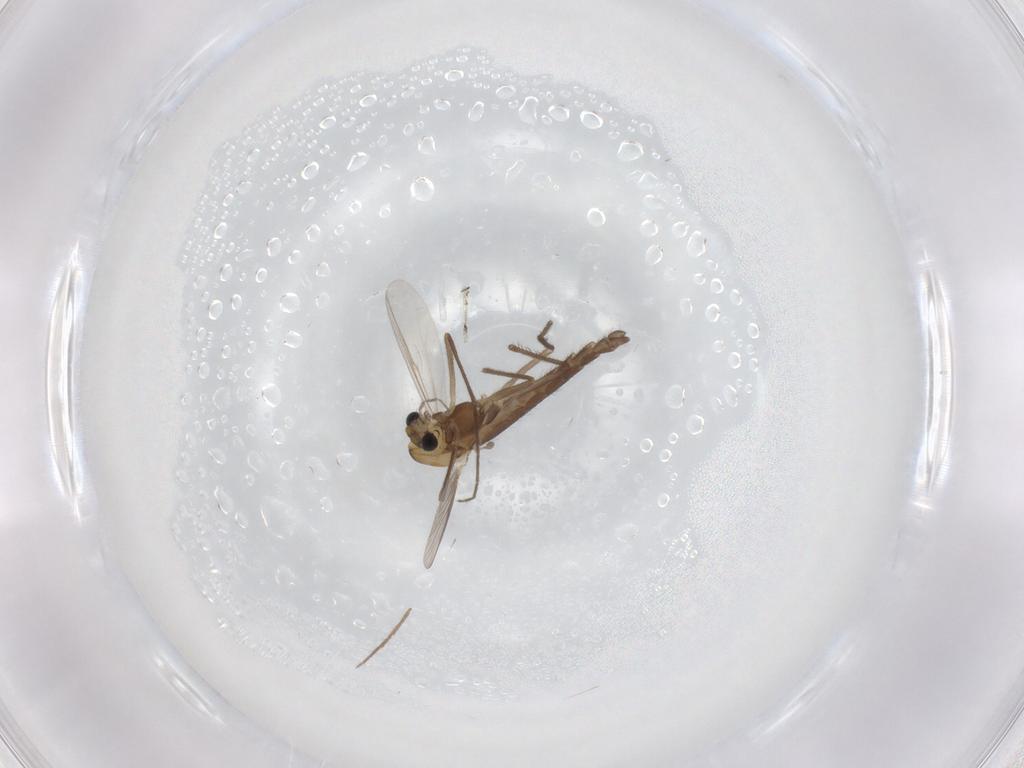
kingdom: Animalia
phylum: Arthropoda
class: Insecta
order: Diptera
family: Chironomidae
